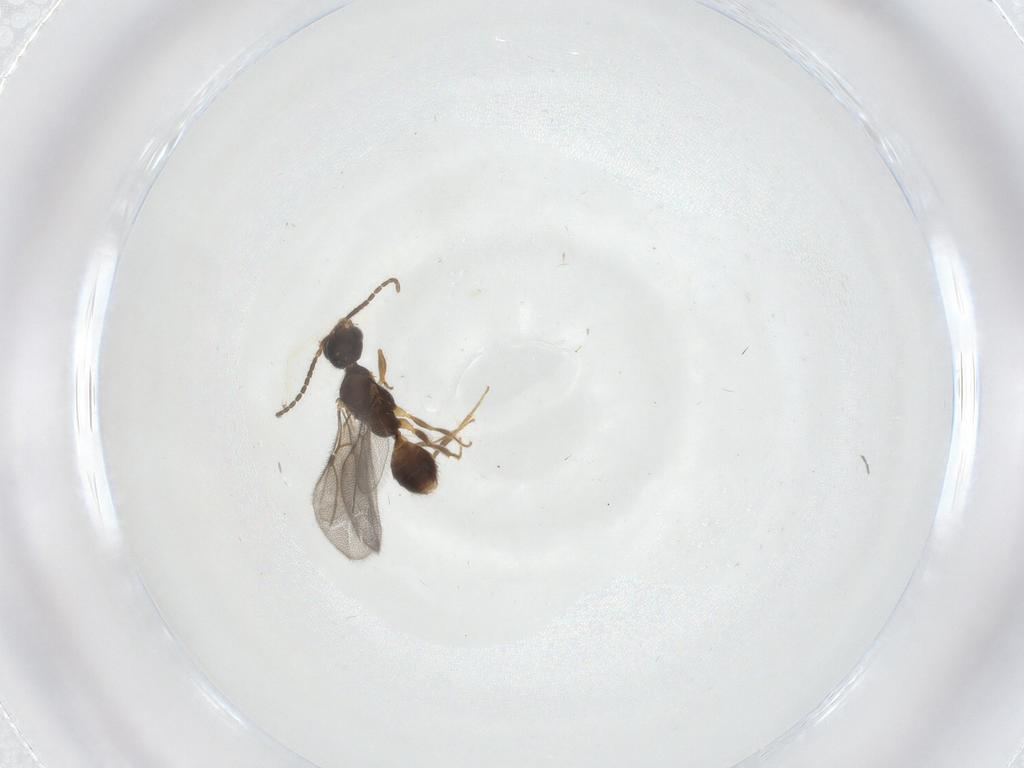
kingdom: Animalia
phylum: Arthropoda
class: Insecta
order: Hymenoptera
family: Bethylidae
